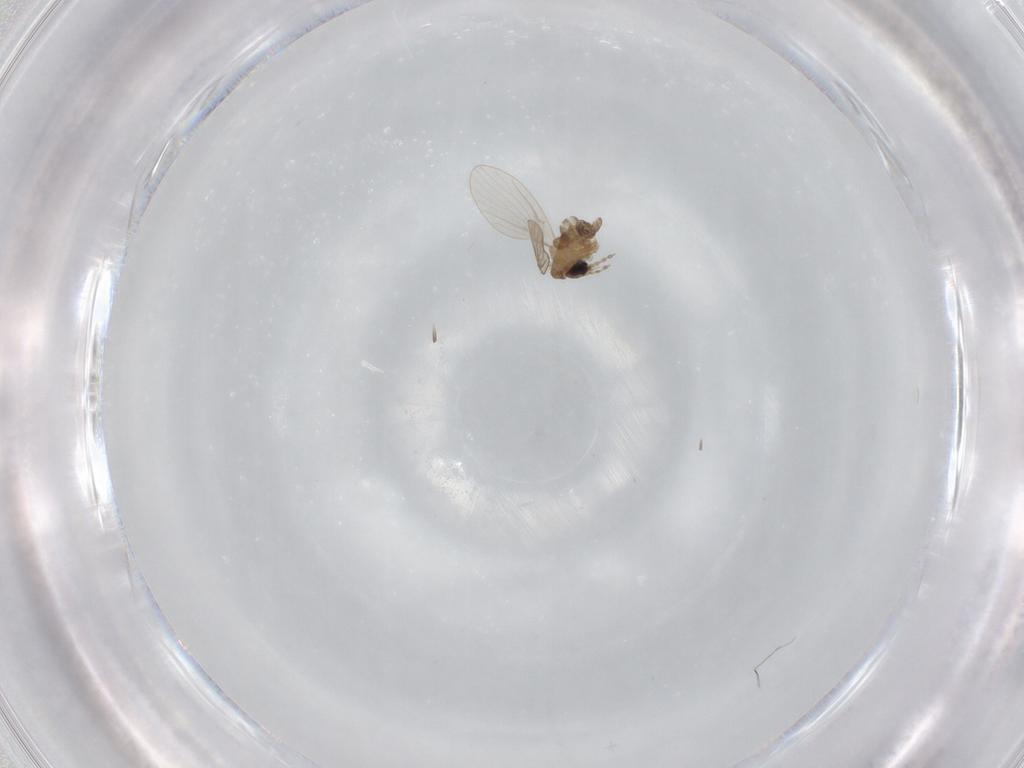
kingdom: Animalia
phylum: Arthropoda
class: Insecta
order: Diptera
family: Psychodidae
